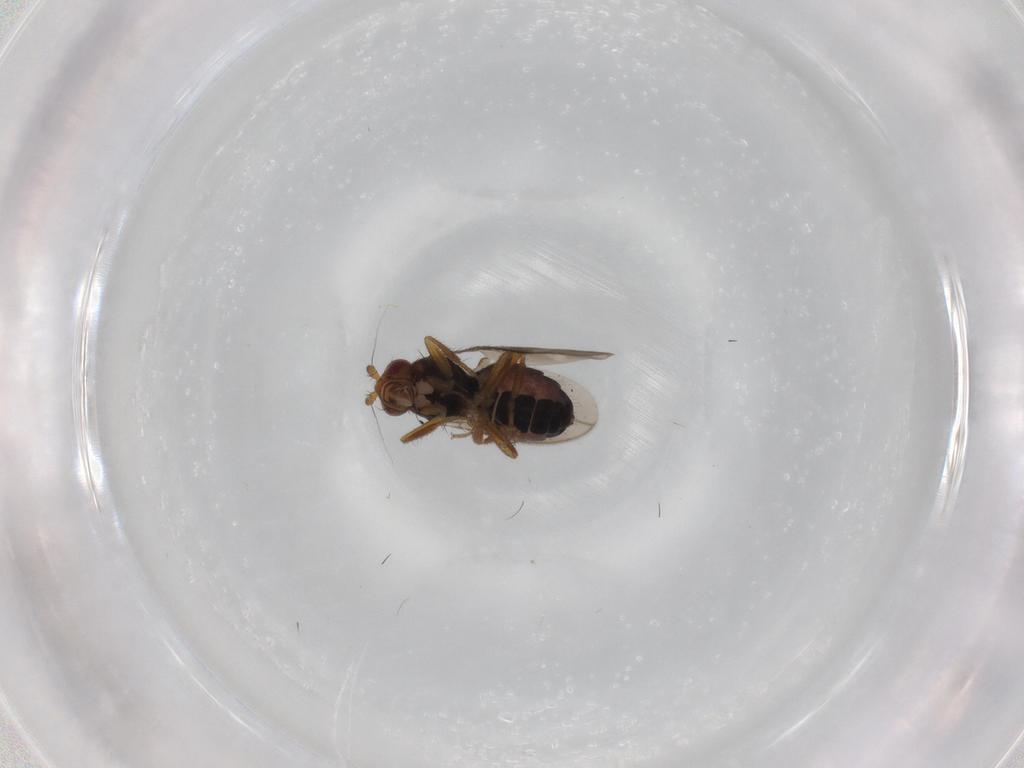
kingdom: Animalia
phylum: Arthropoda
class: Insecta
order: Diptera
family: Sphaeroceridae
